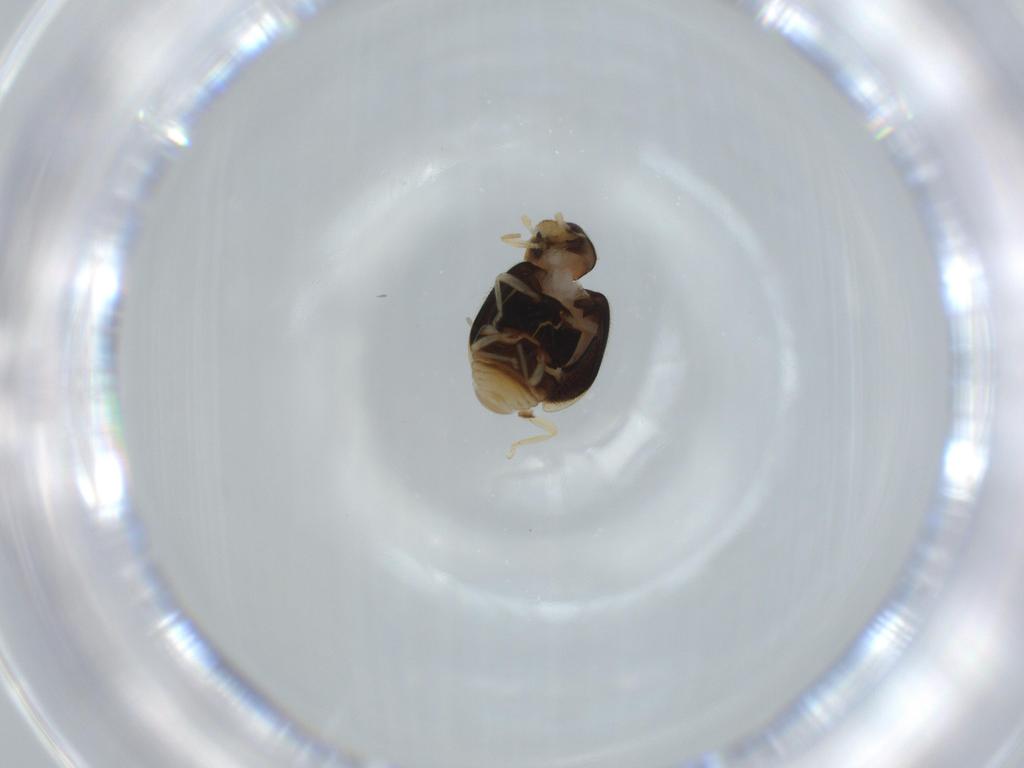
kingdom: Animalia
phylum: Arthropoda
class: Insecta
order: Coleoptera
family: Coccinellidae
